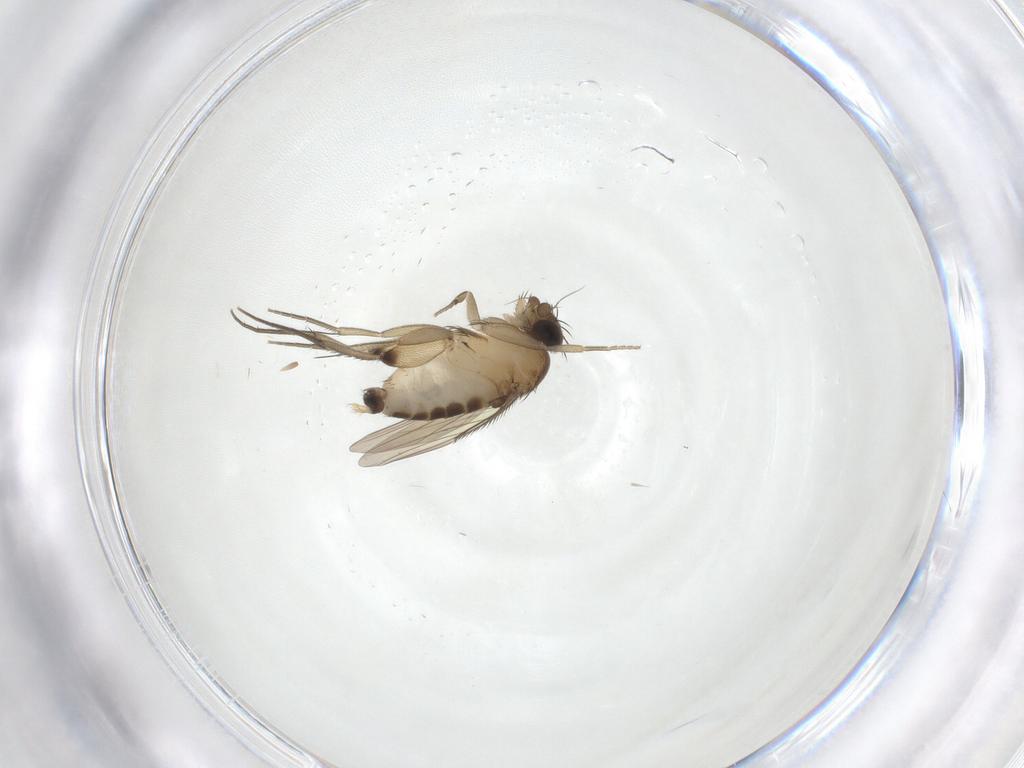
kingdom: Animalia
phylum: Arthropoda
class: Insecta
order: Diptera
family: Phoridae
